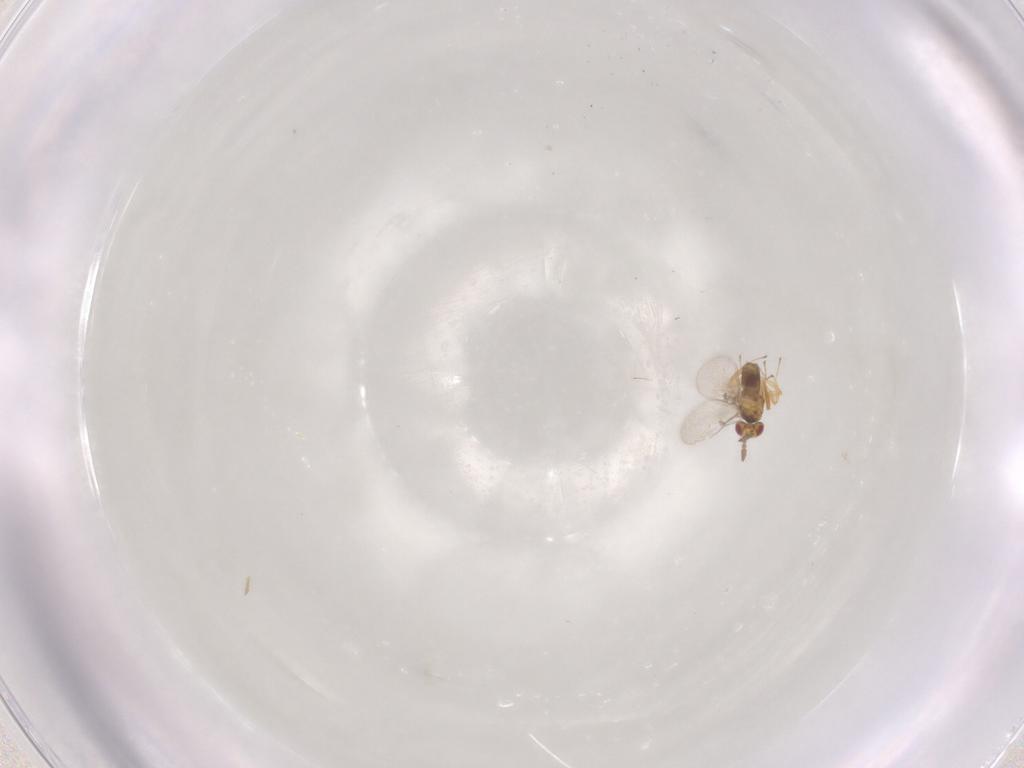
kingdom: Animalia
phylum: Arthropoda
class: Insecta
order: Hymenoptera
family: Trichogrammatidae
